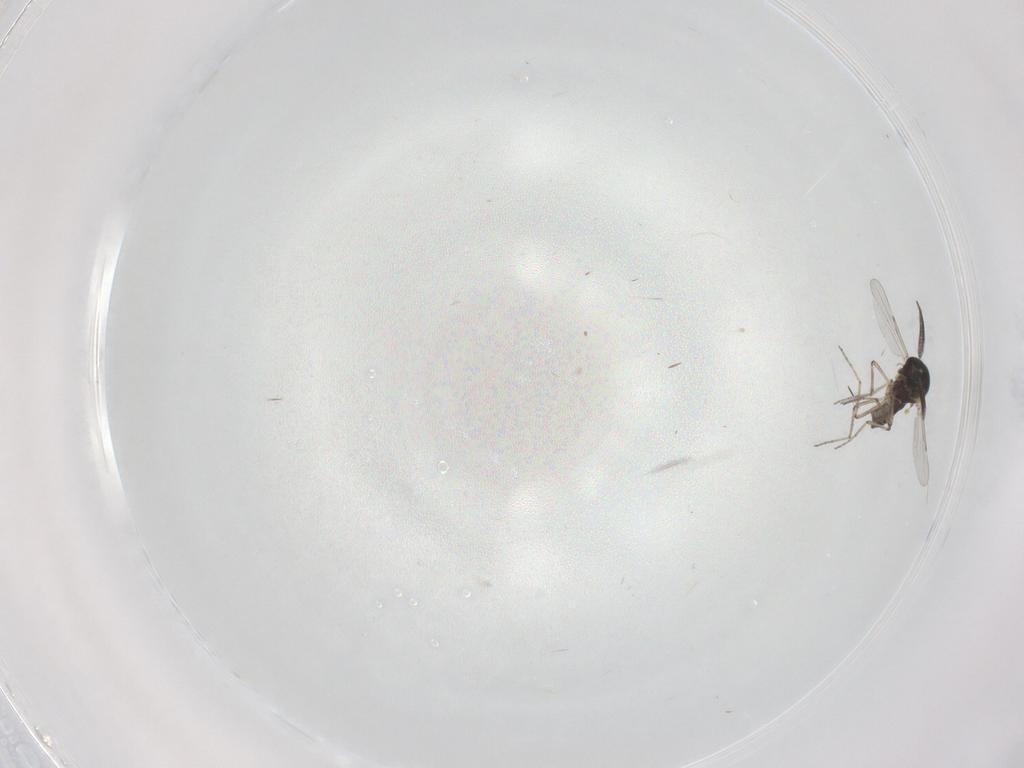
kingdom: Animalia
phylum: Arthropoda
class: Insecta
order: Diptera
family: Ceratopogonidae
